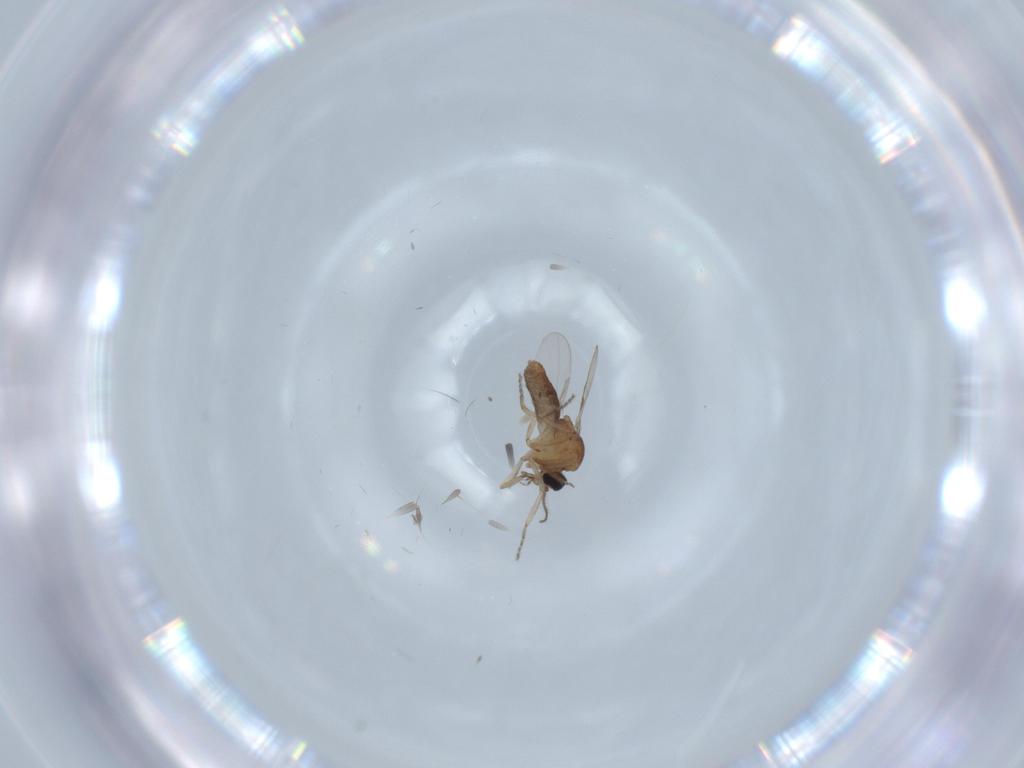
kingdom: Animalia
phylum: Arthropoda
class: Insecta
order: Diptera
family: Ceratopogonidae
